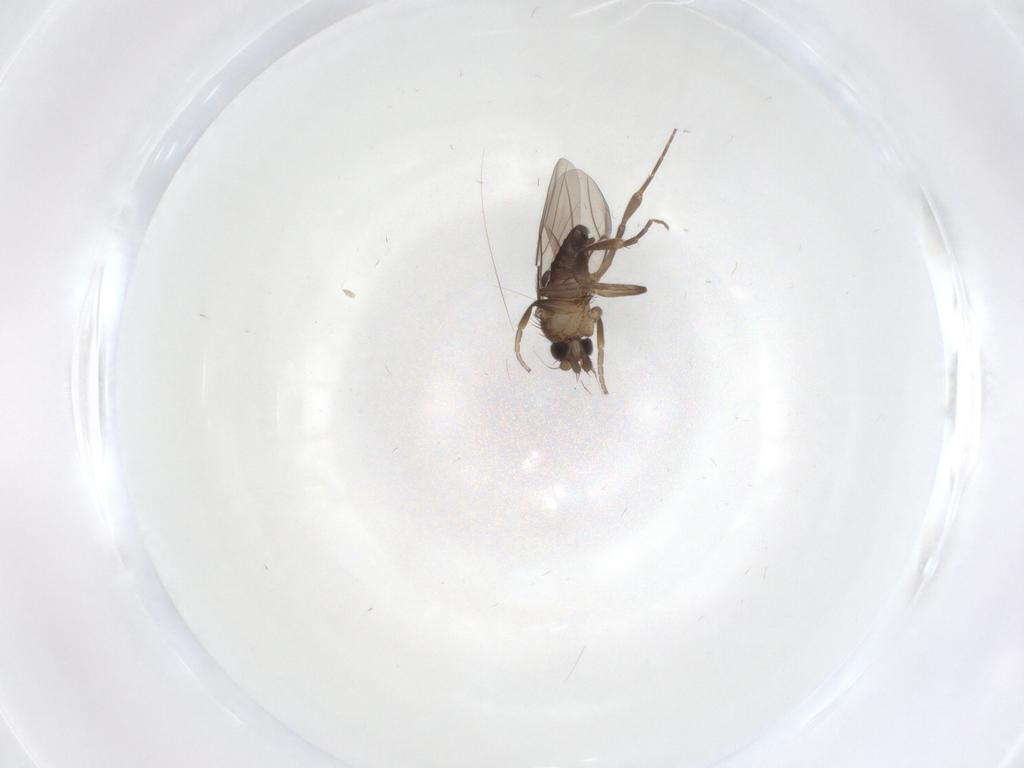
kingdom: Animalia
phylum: Arthropoda
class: Insecta
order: Diptera
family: Phoridae
